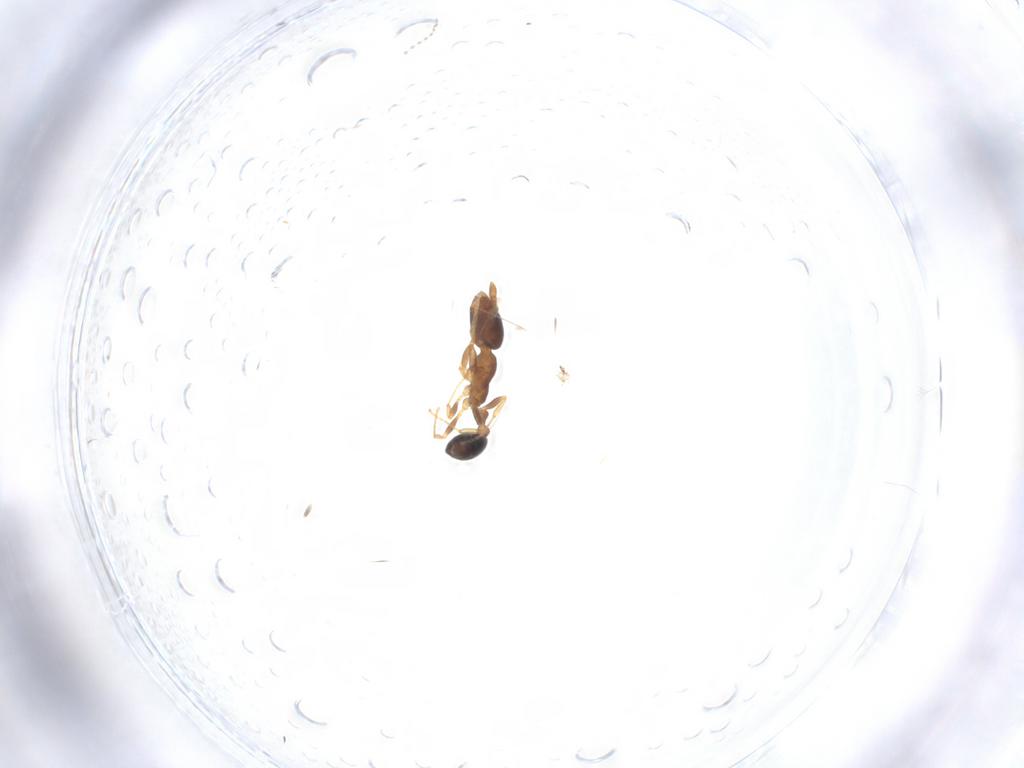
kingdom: Animalia
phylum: Arthropoda
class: Insecta
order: Hymenoptera
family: Formicidae
